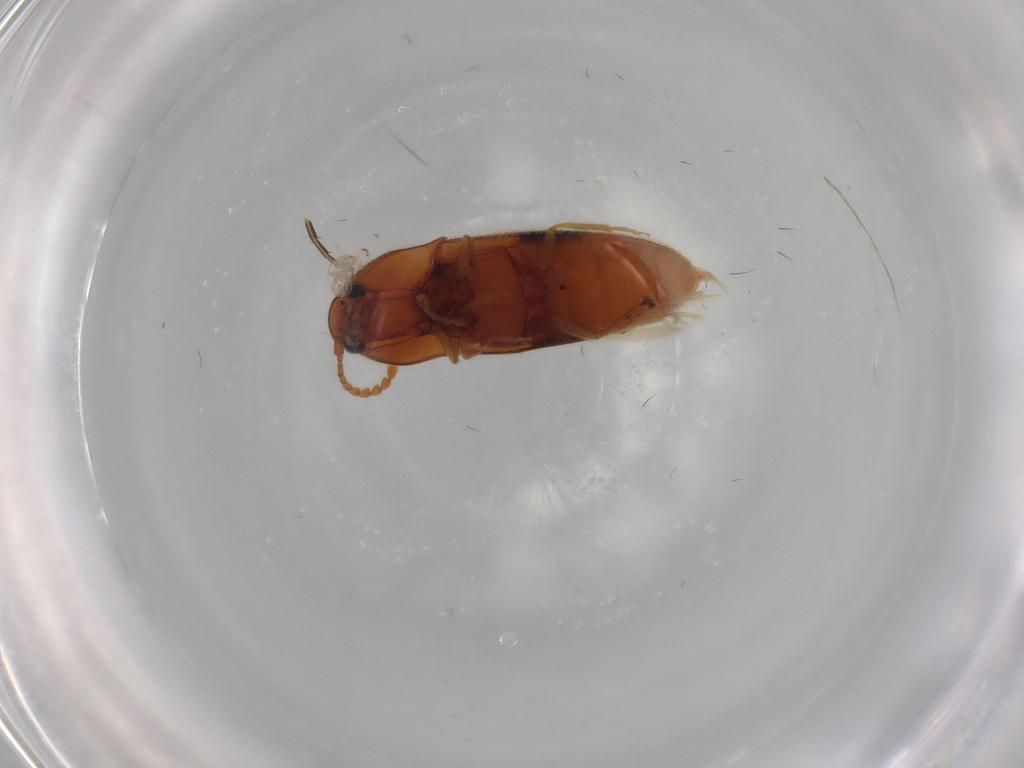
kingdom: Animalia
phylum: Arthropoda
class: Insecta
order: Coleoptera
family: Elateridae
